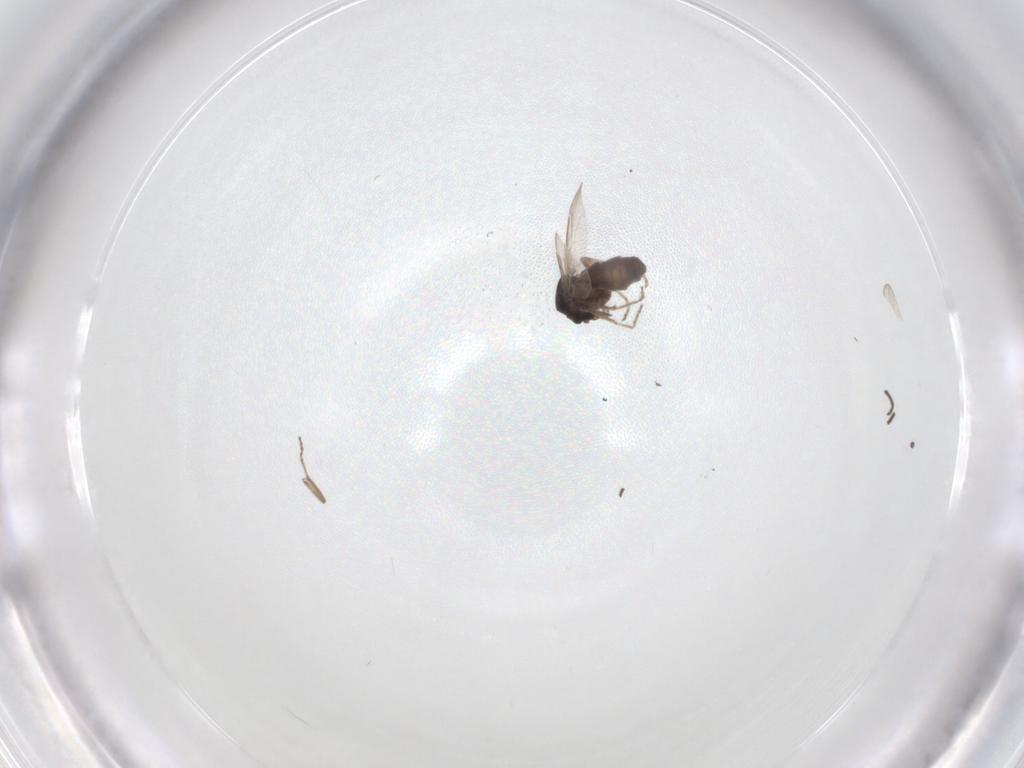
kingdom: Animalia
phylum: Arthropoda
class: Insecta
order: Diptera
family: Ceratopogonidae
